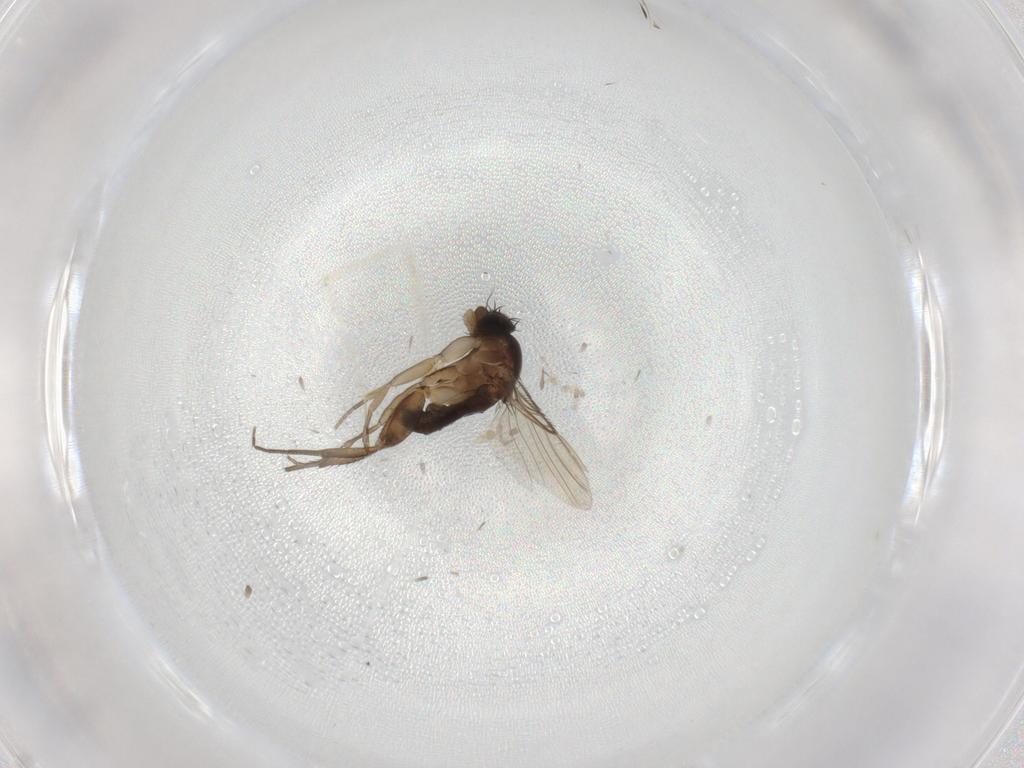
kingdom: Animalia
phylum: Arthropoda
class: Insecta
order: Diptera
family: Phoridae
